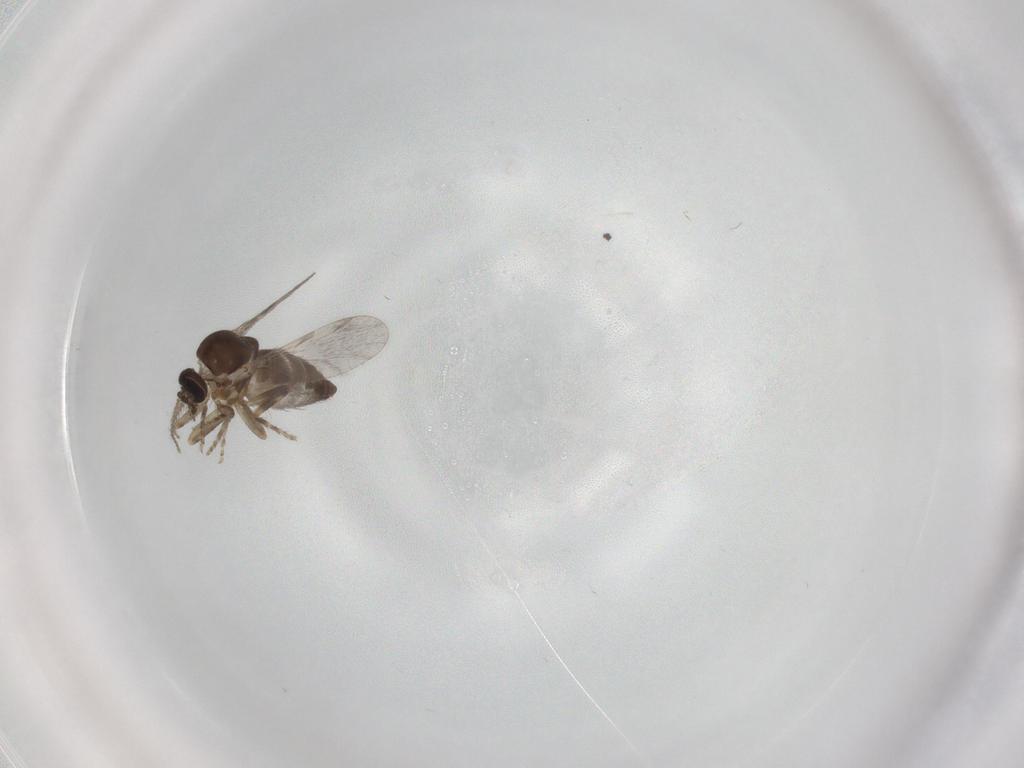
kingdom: Animalia
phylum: Arthropoda
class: Insecta
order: Diptera
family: Ceratopogonidae
